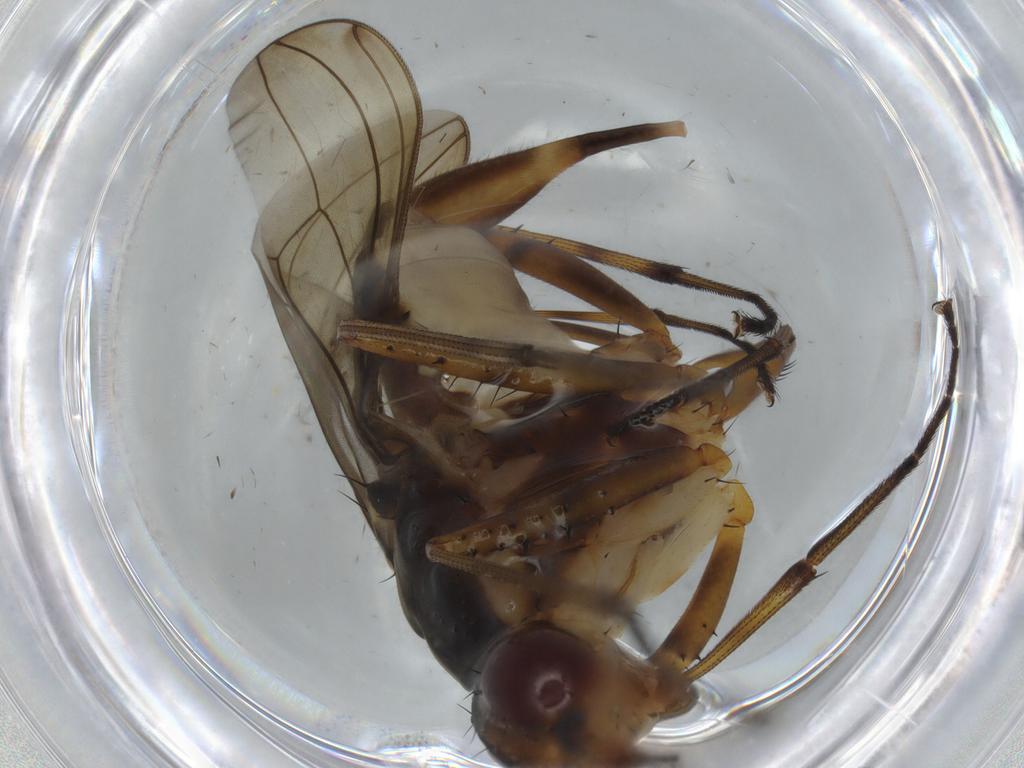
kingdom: Animalia
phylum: Arthropoda
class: Insecta
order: Diptera
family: Neriidae
